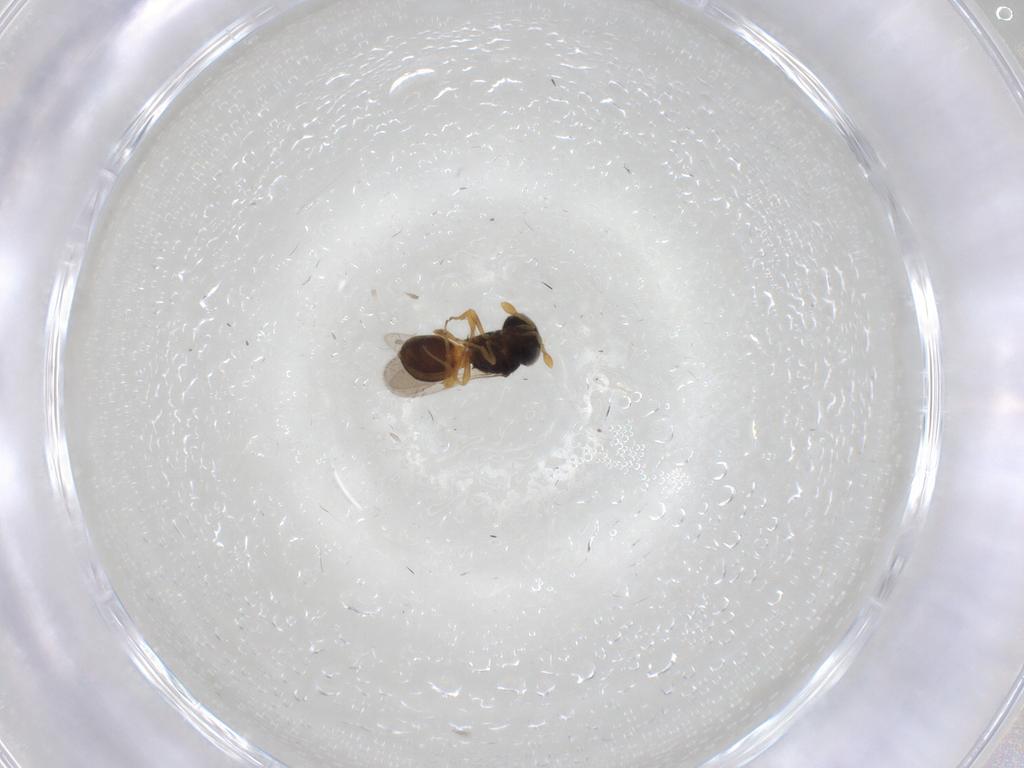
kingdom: Animalia
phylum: Arthropoda
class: Insecta
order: Hymenoptera
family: Scelionidae
